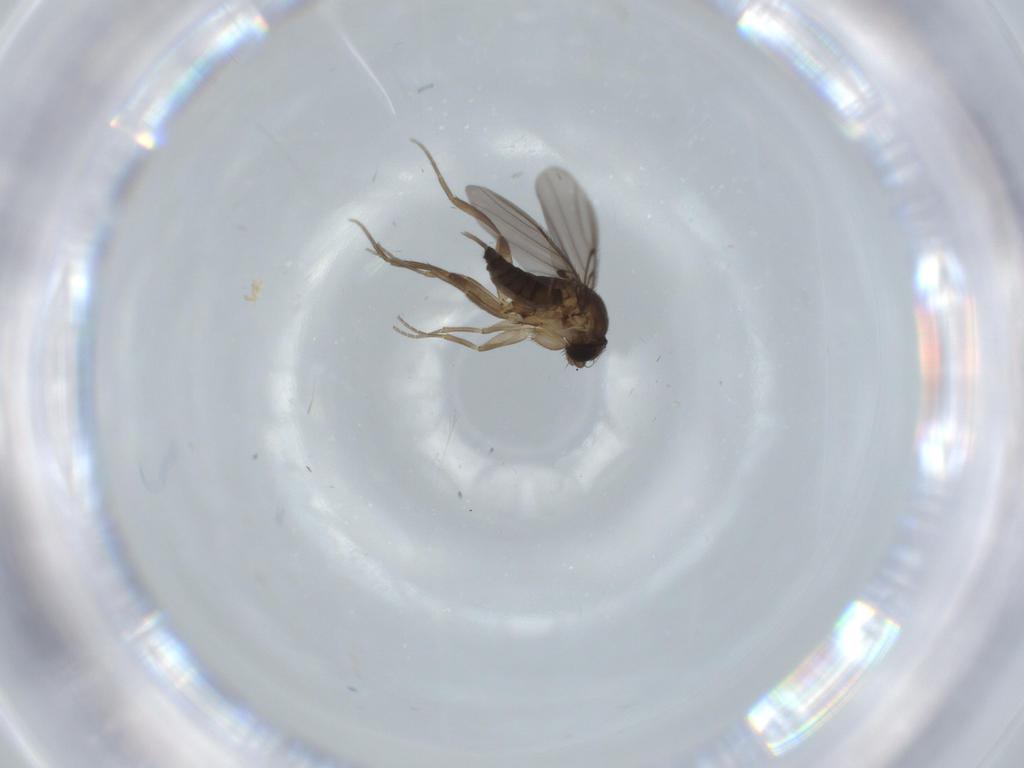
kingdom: Animalia
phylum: Arthropoda
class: Insecta
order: Diptera
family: Phoridae
